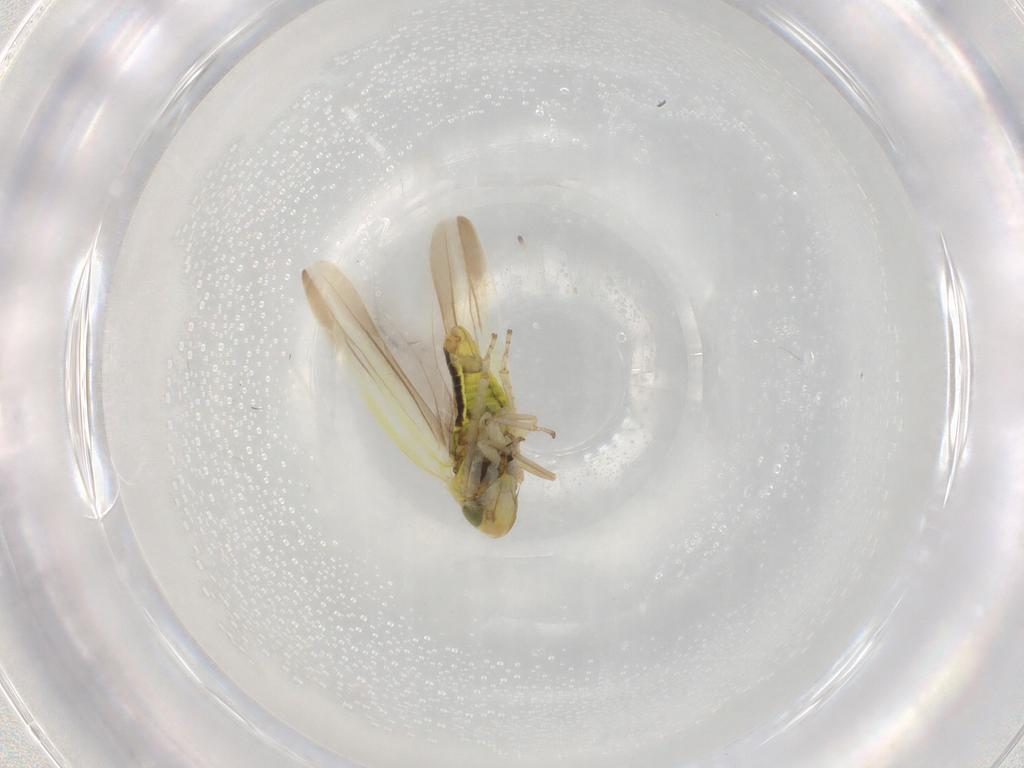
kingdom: Animalia
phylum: Arthropoda
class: Insecta
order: Hemiptera
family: Cicadellidae
